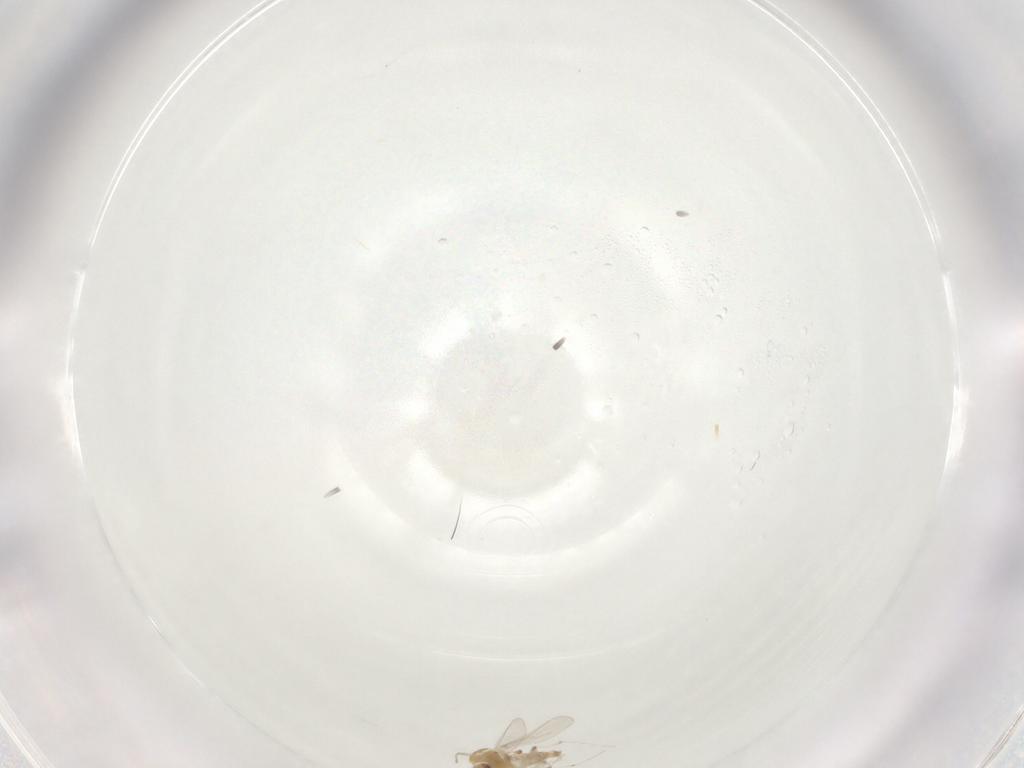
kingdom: Animalia
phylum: Arthropoda
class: Insecta
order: Diptera
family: Chironomidae
